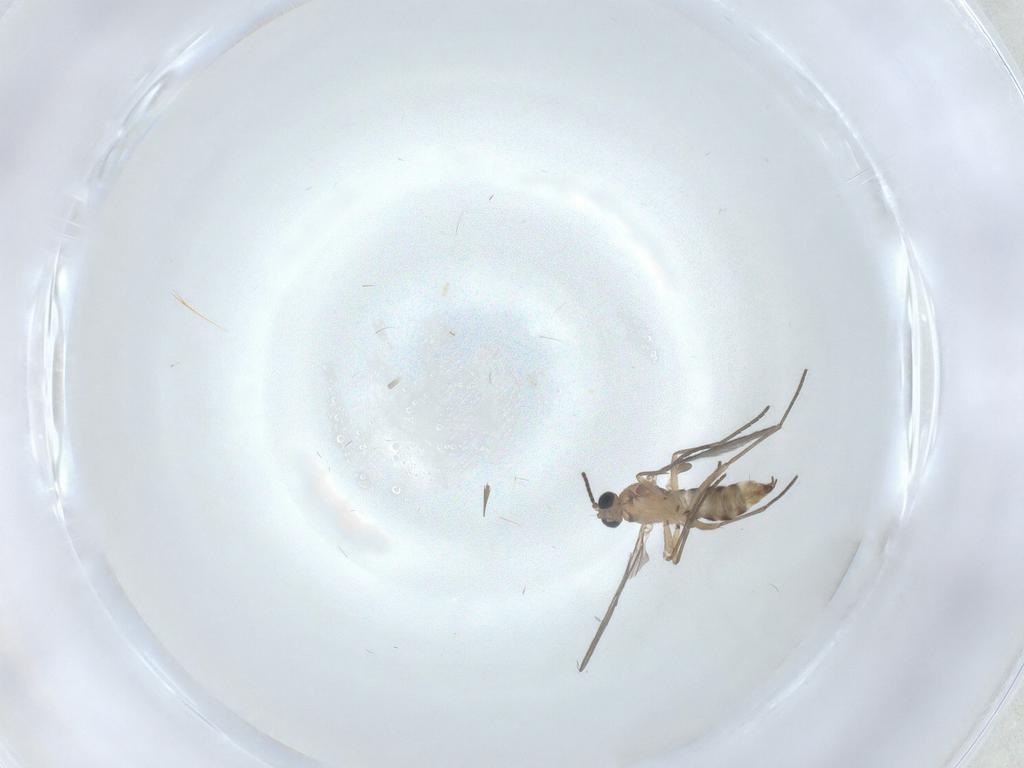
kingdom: Animalia
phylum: Arthropoda
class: Insecta
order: Diptera
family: Cecidomyiidae
